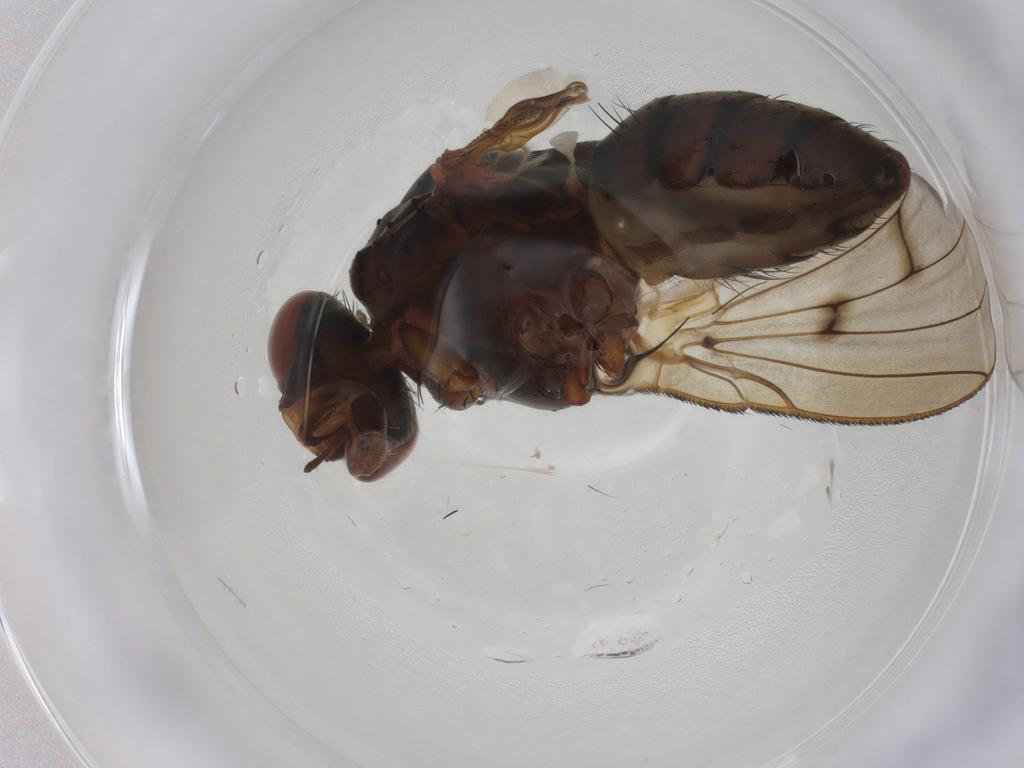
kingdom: Animalia
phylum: Arthropoda
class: Insecta
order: Diptera
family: Anthomyiidae
